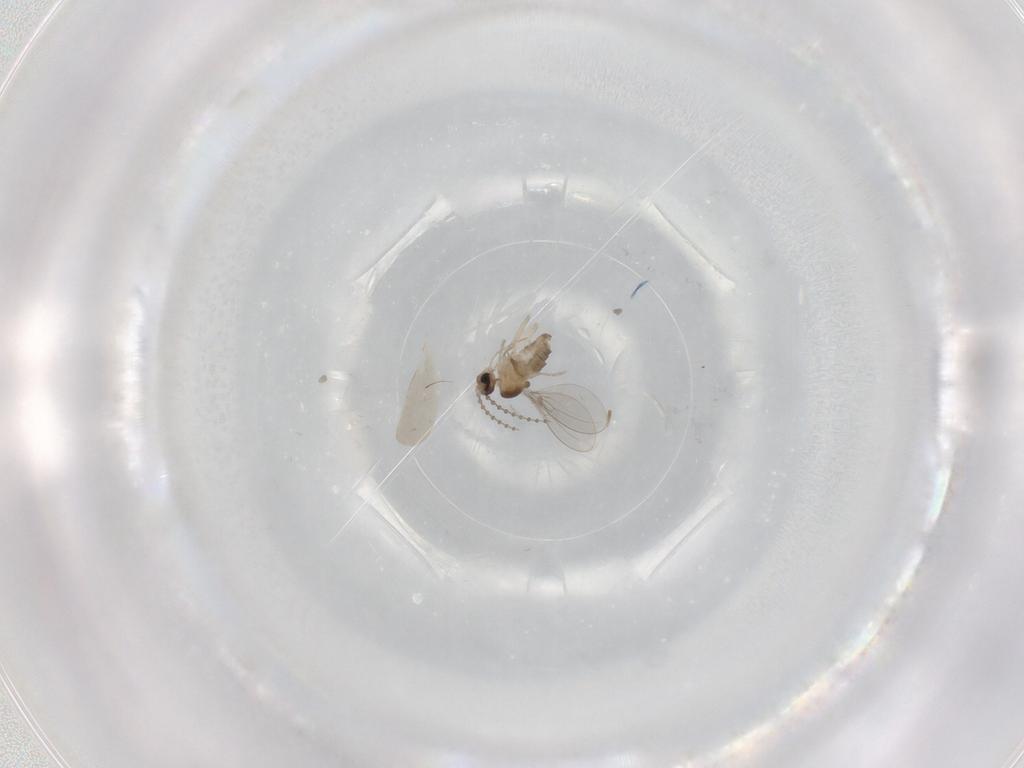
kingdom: Animalia
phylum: Arthropoda
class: Insecta
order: Diptera
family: Cecidomyiidae
